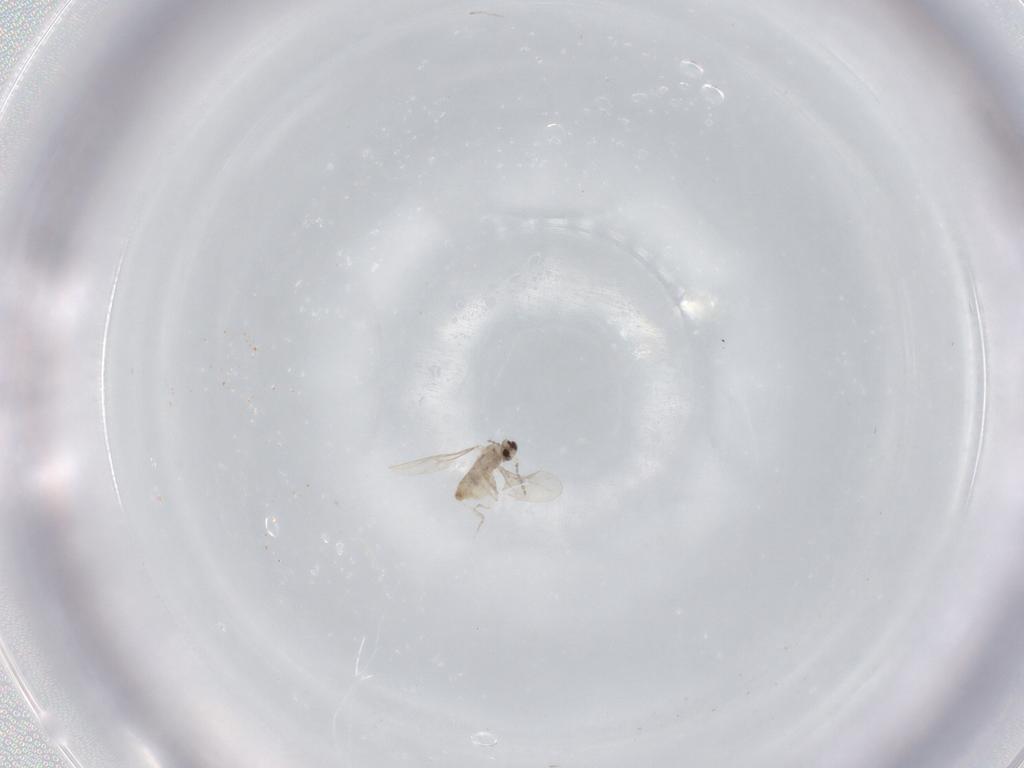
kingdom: Animalia
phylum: Arthropoda
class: Insecta
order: Diptera
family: Cecidomyiidae
